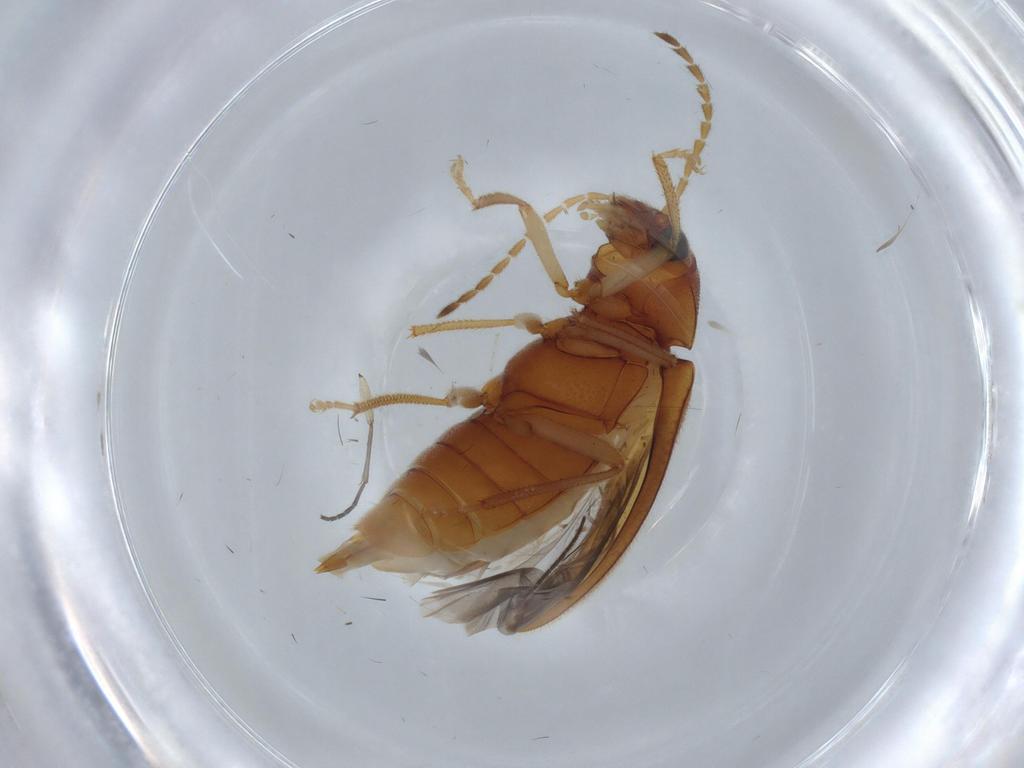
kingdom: Animalia
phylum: Arthropoda
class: Insecta
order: Coleoptera
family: Ptilodactylidae
